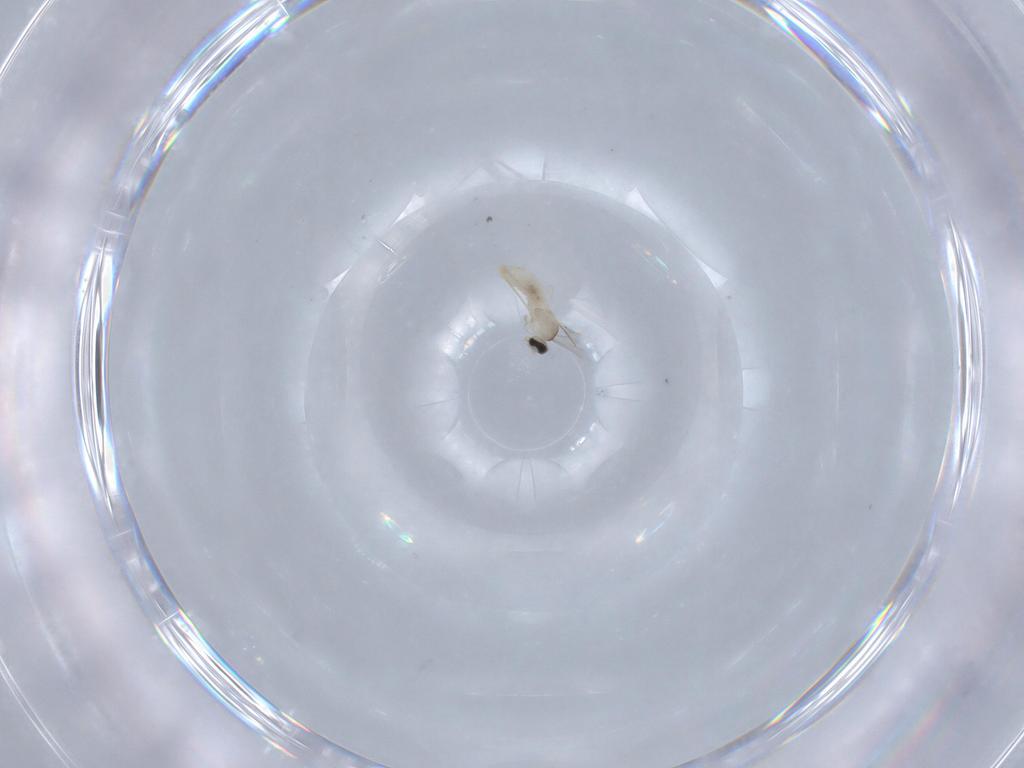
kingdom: Animalia
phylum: Arthropoda
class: Insecta
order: Diptera
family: Cecidomyiidae
